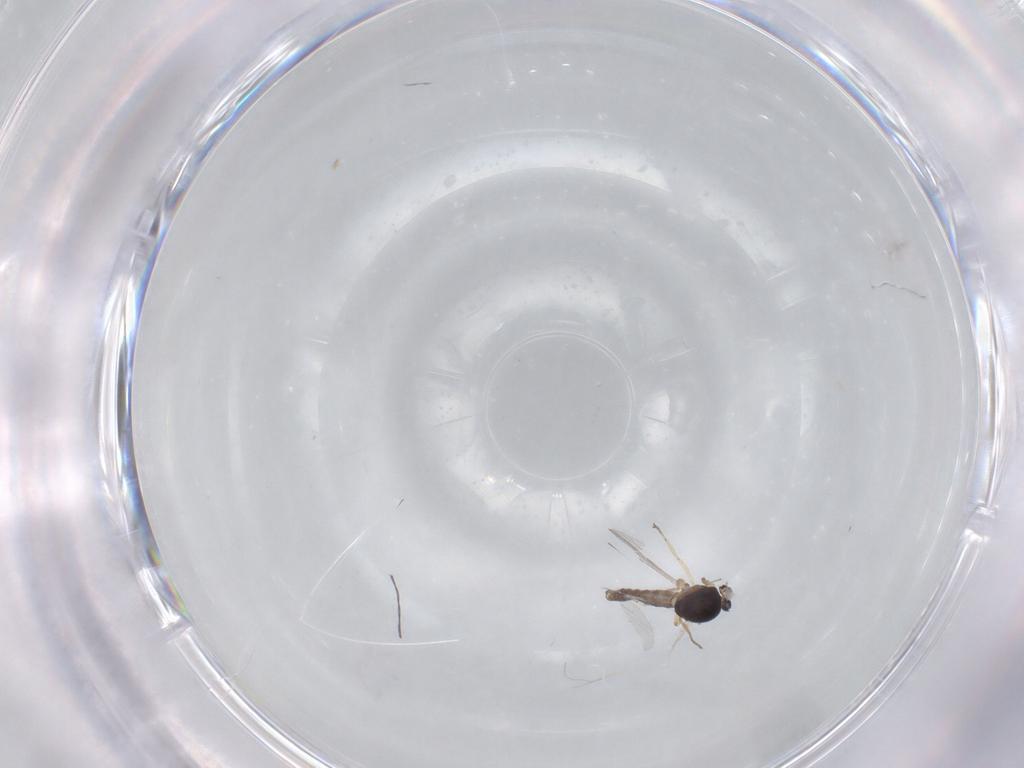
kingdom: Animalia
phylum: Arthropoda
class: Insecta
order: Diptera
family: Ceratopogonidae
